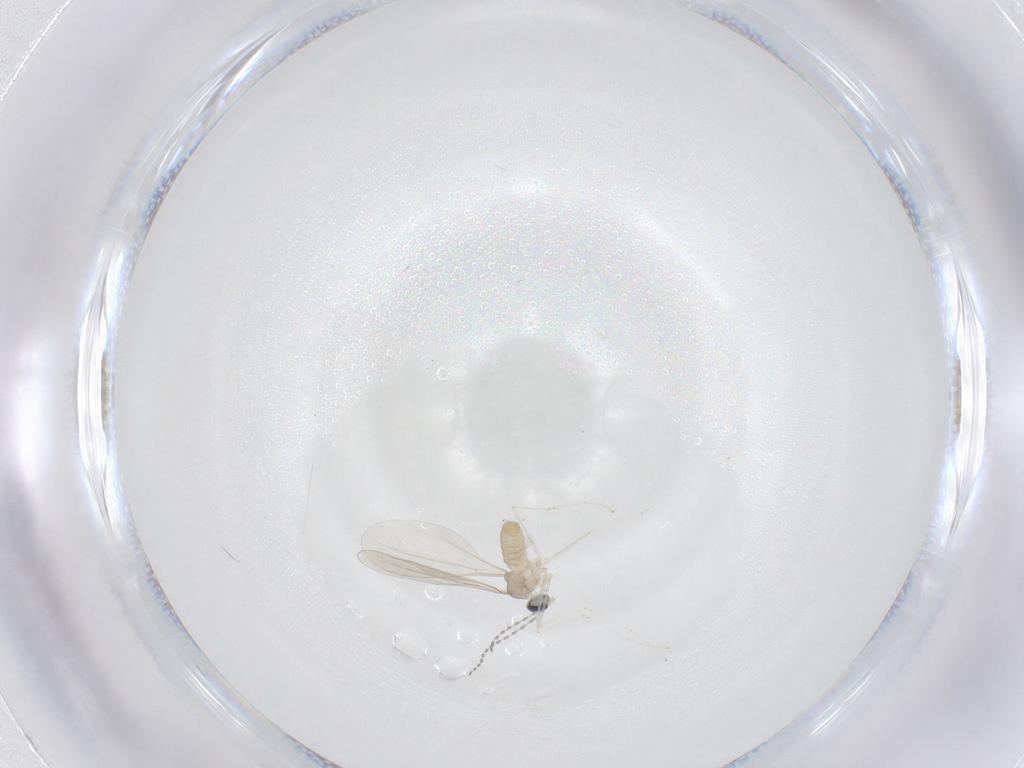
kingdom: Animalia
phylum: Arthropoda
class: Insecta
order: Diptera
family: Cecidomyiidae
